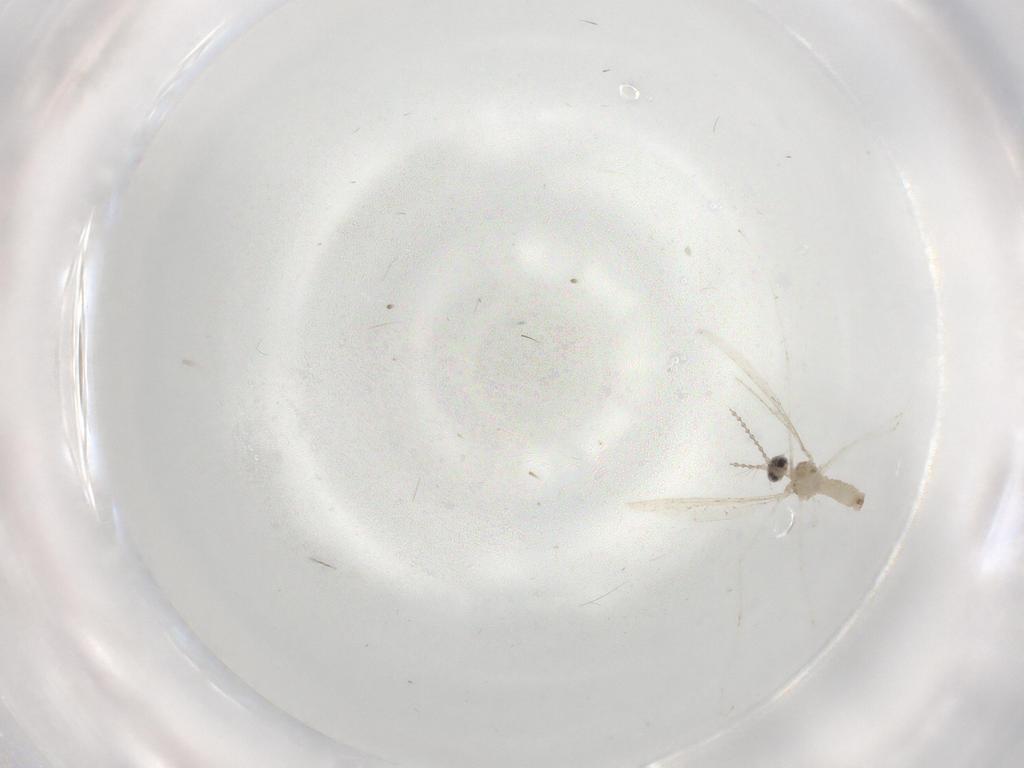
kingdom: Animalia
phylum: Arthropoda
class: Insecta
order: Diptera
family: Cecidomyiidae
